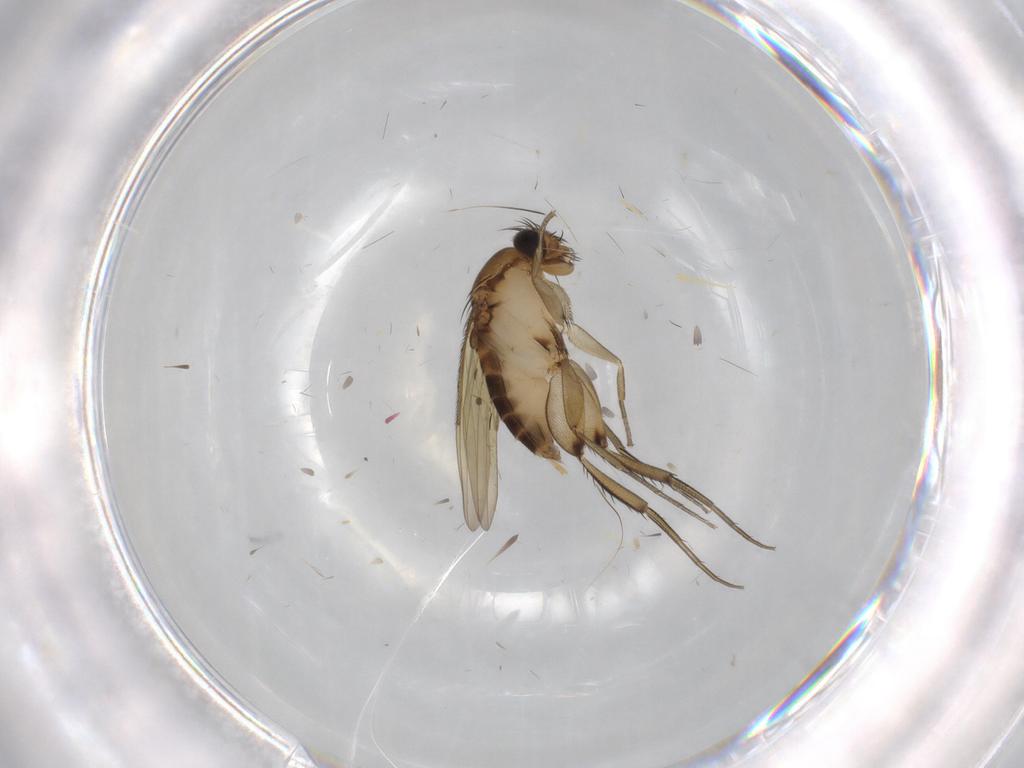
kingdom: Animalia
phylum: Arthropoda
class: Insecta
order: Diptera
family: Phoridae
